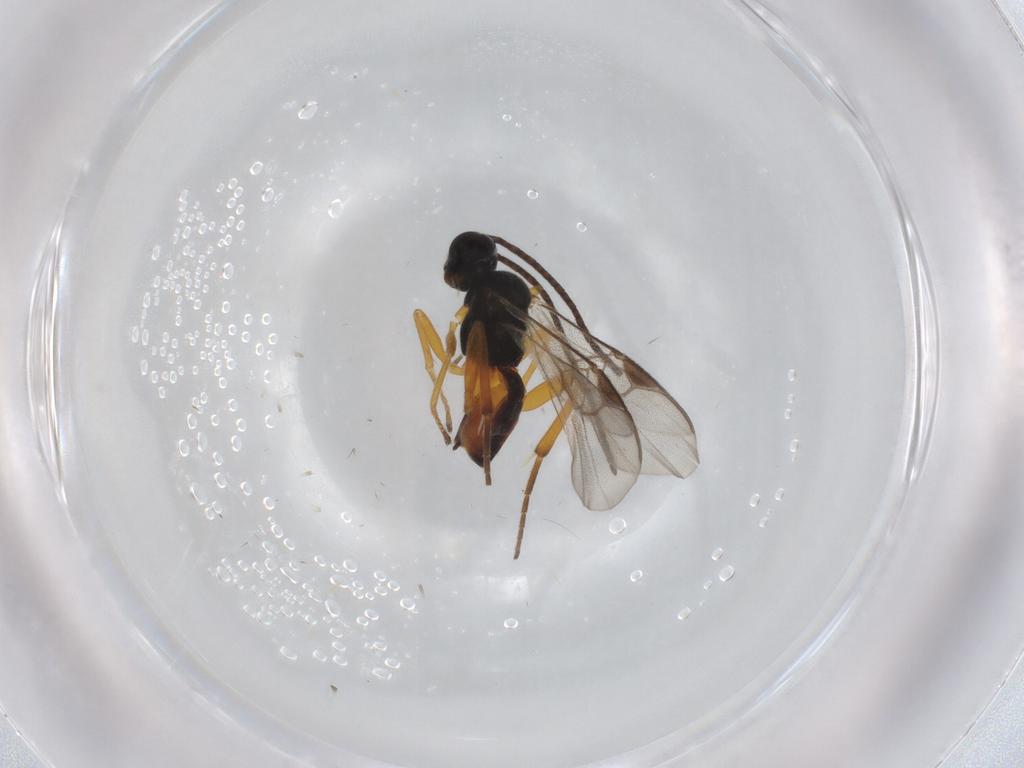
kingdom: Animalia
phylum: Arthropoda
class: Insecta
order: Hymenoptera
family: Braconidae
